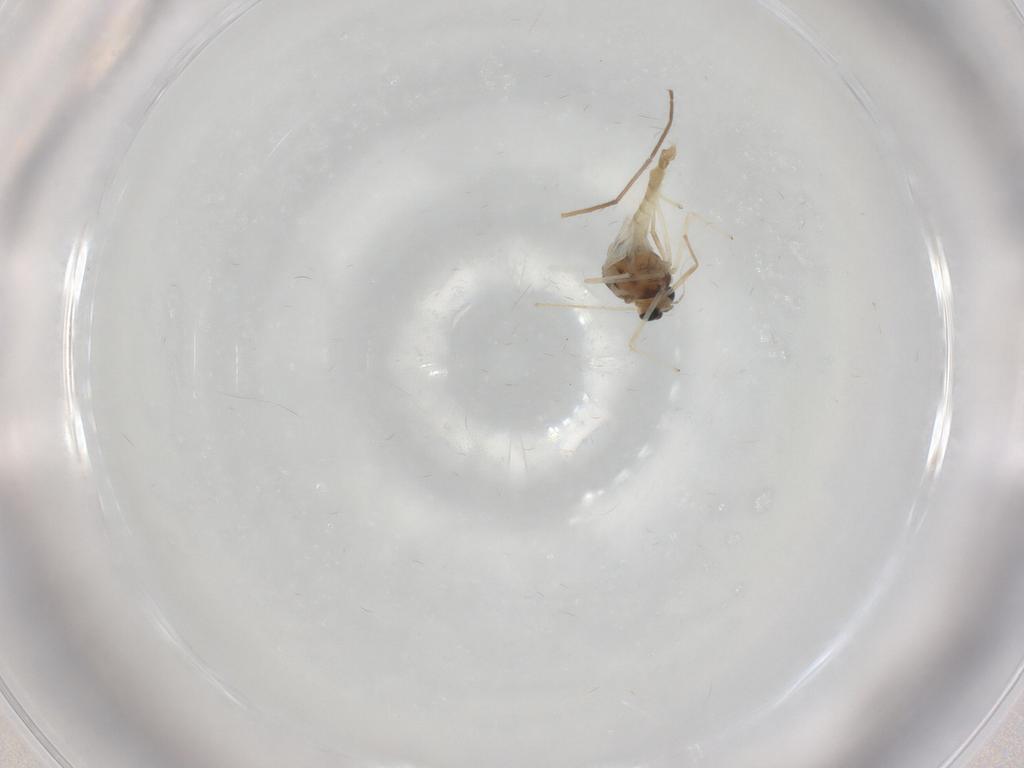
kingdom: Animalia
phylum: Arthropoda
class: Insecta
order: Diptera
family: Chironomidae
